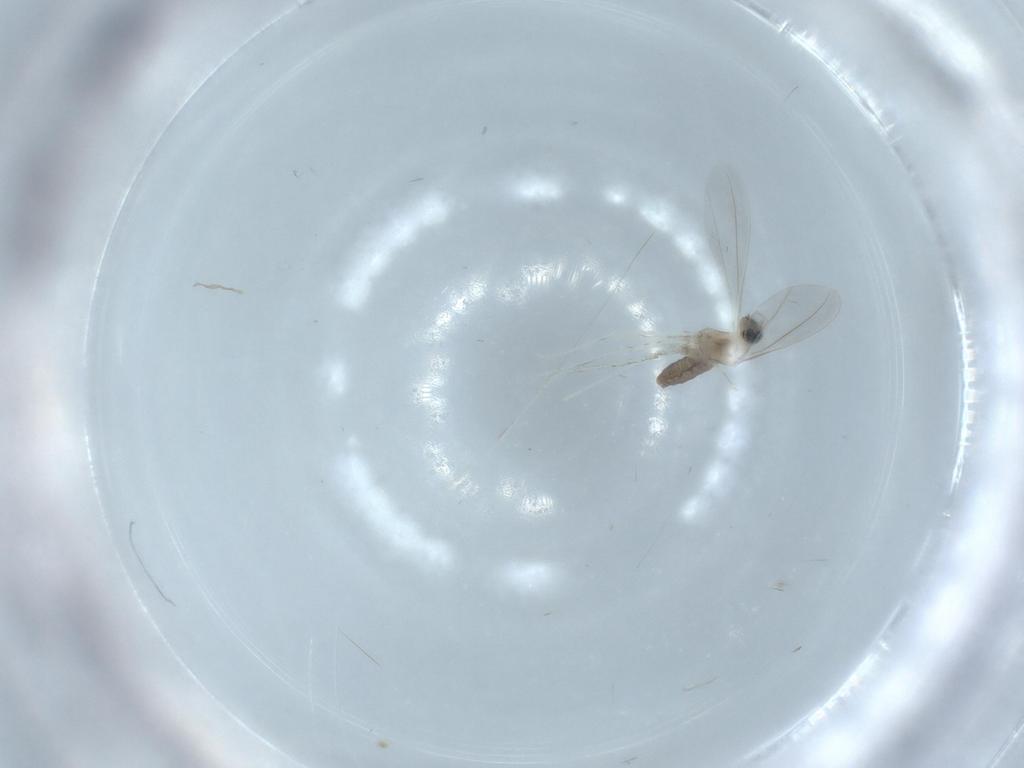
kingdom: Animalia
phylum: Arthropoda
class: Insecta
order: Diptera
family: Cecidomyiidae
